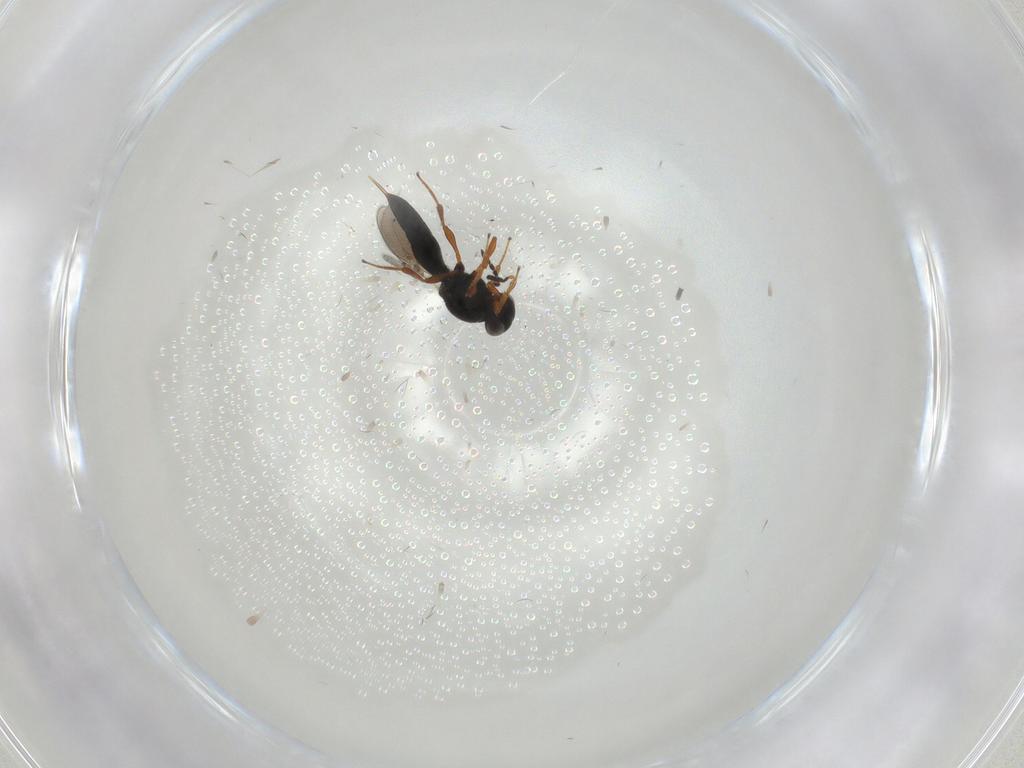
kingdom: Animalia
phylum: Arthropoda
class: Insecta
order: Hymenoptera
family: Platygastridae
